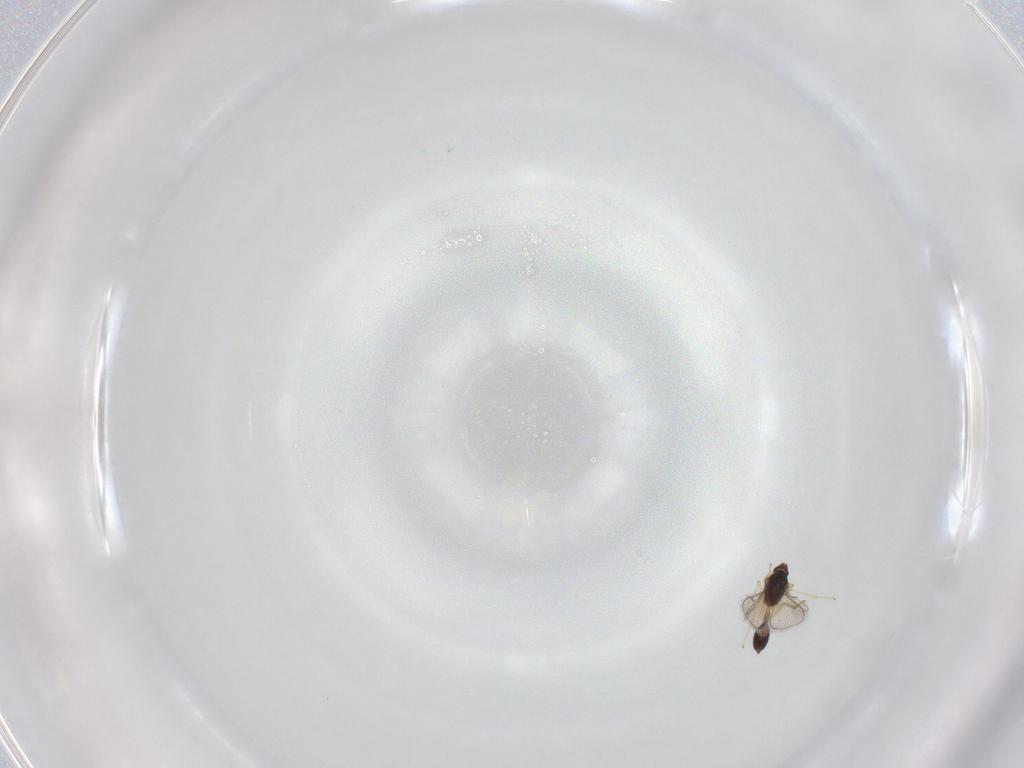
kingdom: Animalia
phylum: Arthropoda
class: Insecta
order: Hymenoptera
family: Diparidae
